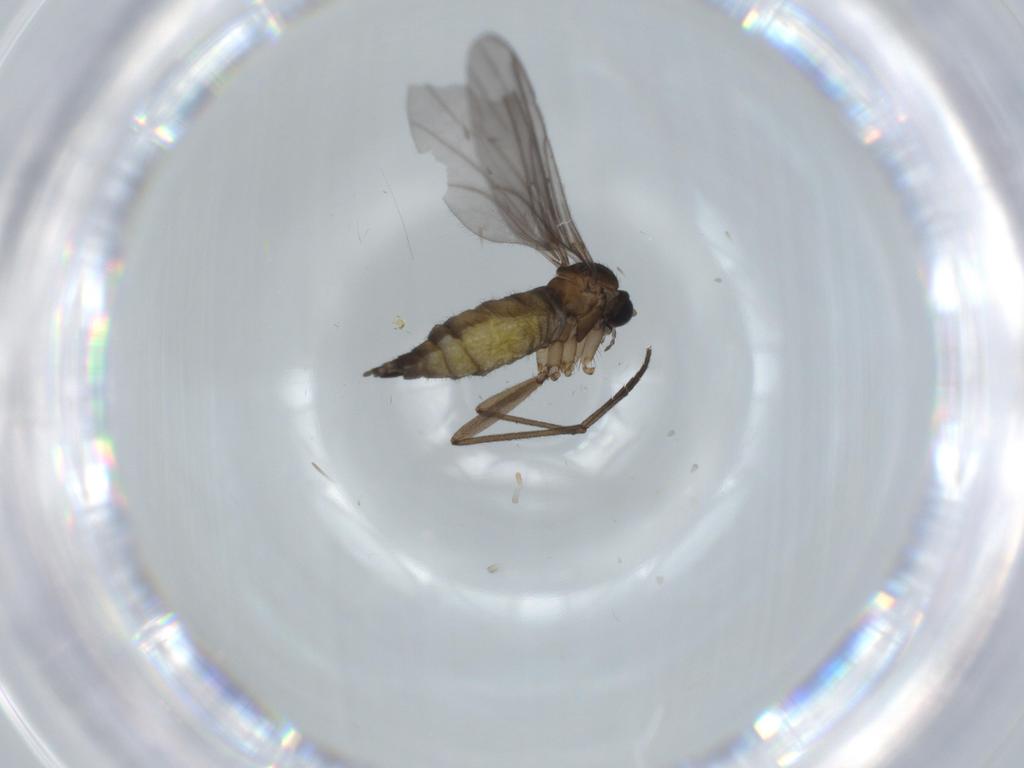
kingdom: Animalia
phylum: Arthropoda
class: Insecta
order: Diptera
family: Sciaridae
